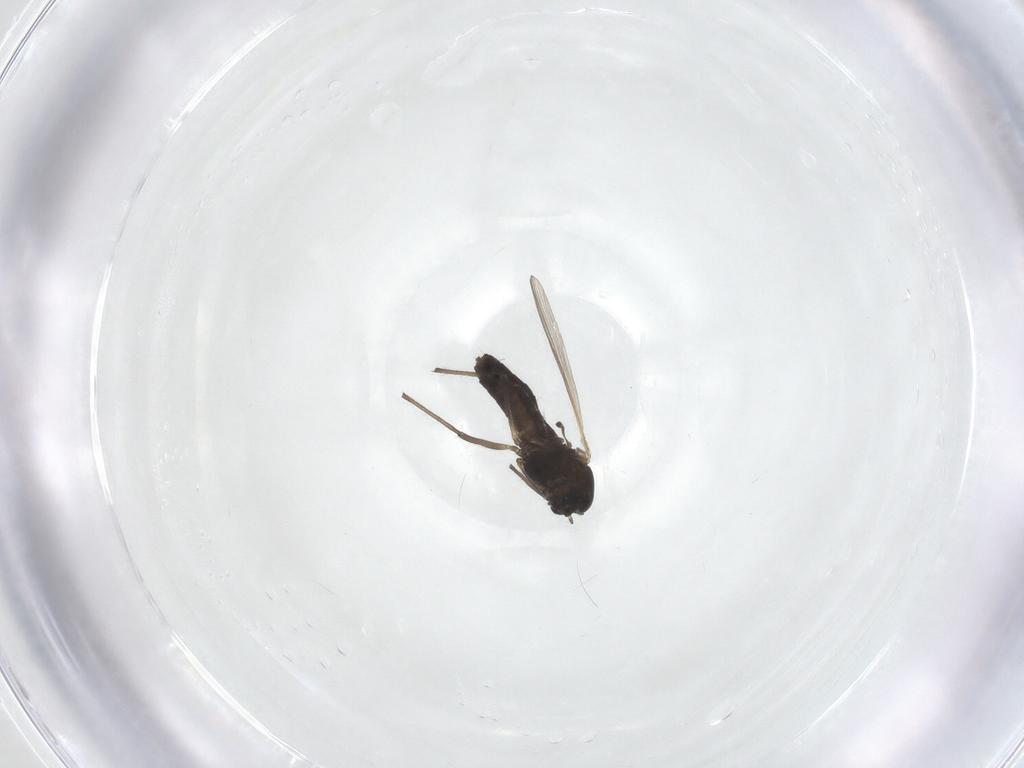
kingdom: Animalia
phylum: Arthropoda
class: Insecta
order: Diptera
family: Chironomidae
